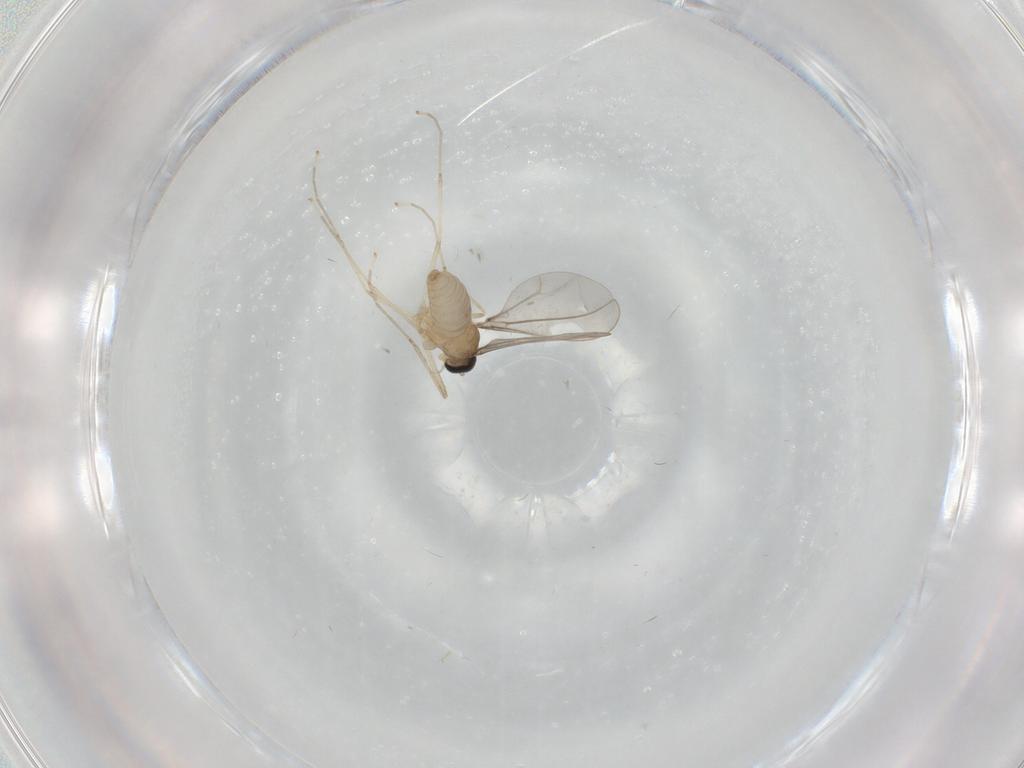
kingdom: Animalia
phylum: Arthropoda
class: Insecta
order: Diptera
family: Cecidomyiidae
